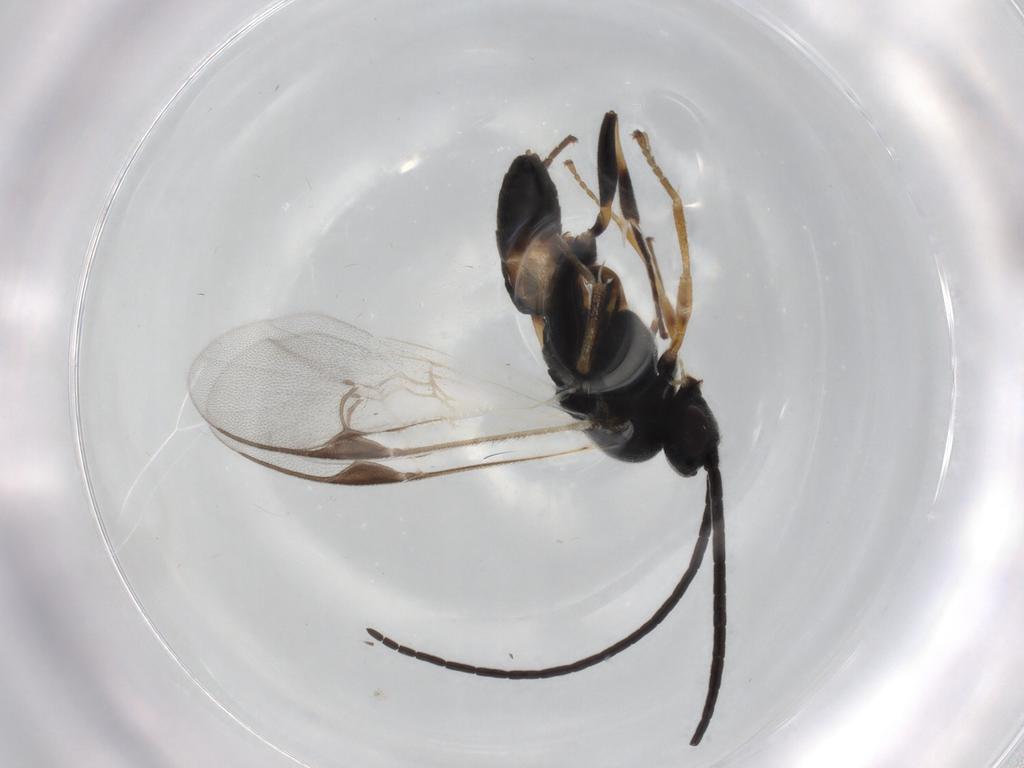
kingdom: Animalia
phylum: Arthropoda
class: Insecta
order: Hymenoptera
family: Braconidae
